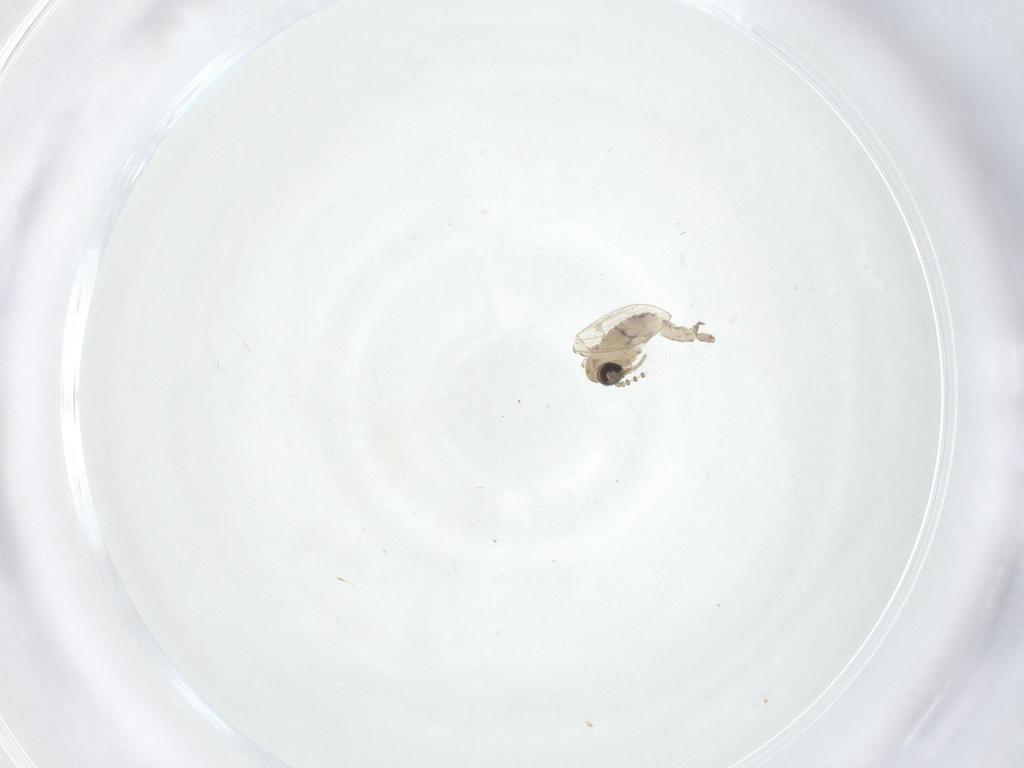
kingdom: Animalia
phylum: Arthropoda
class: Insecta
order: Diptera
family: Psychodidae
